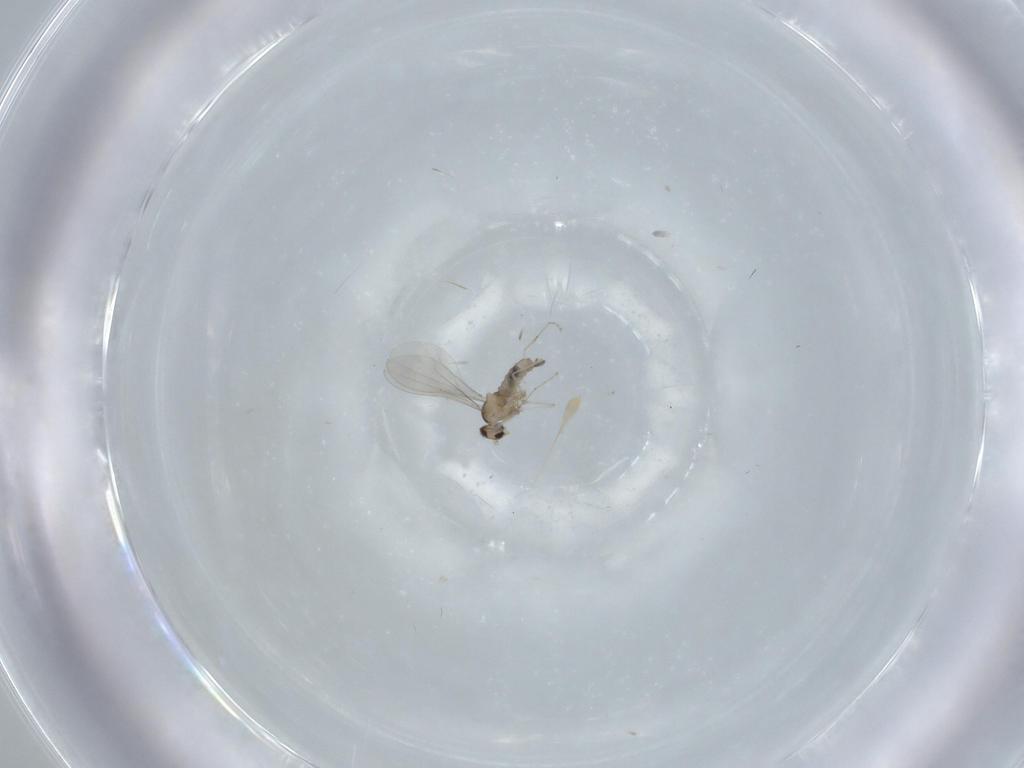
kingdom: Animalia
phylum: Arthropoda
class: Insecta
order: Diptera
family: Cecidomyiidae
